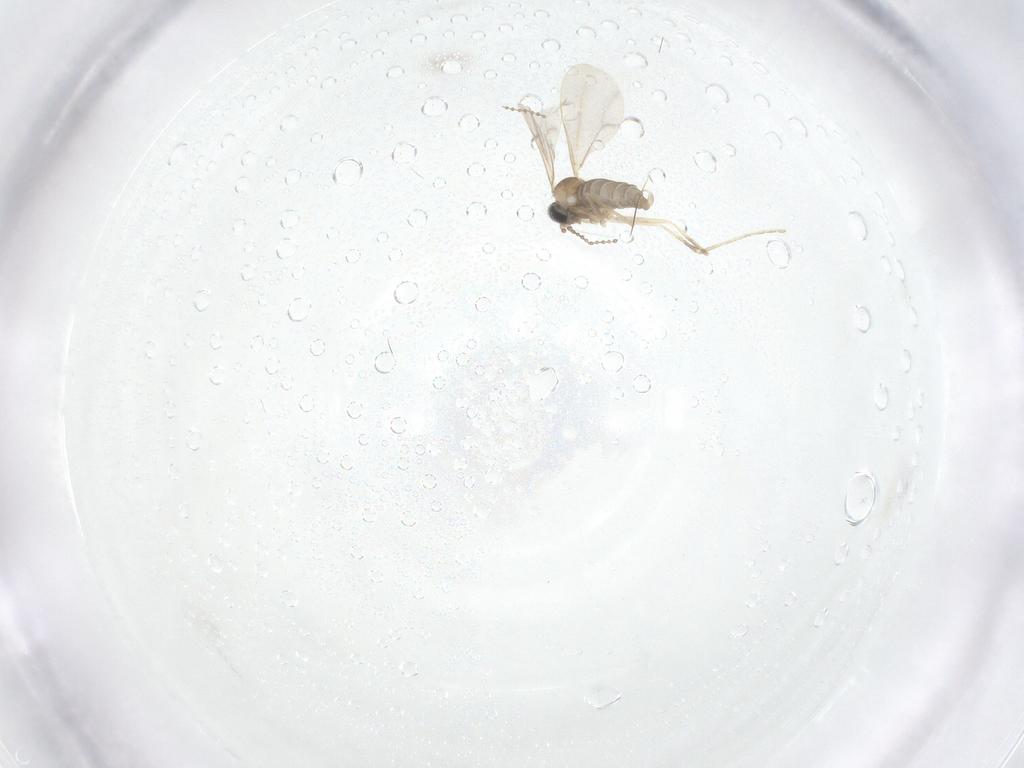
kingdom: Animalia
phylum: Arthropoda
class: Insecta
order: Diptera
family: Cecidomyiidae
